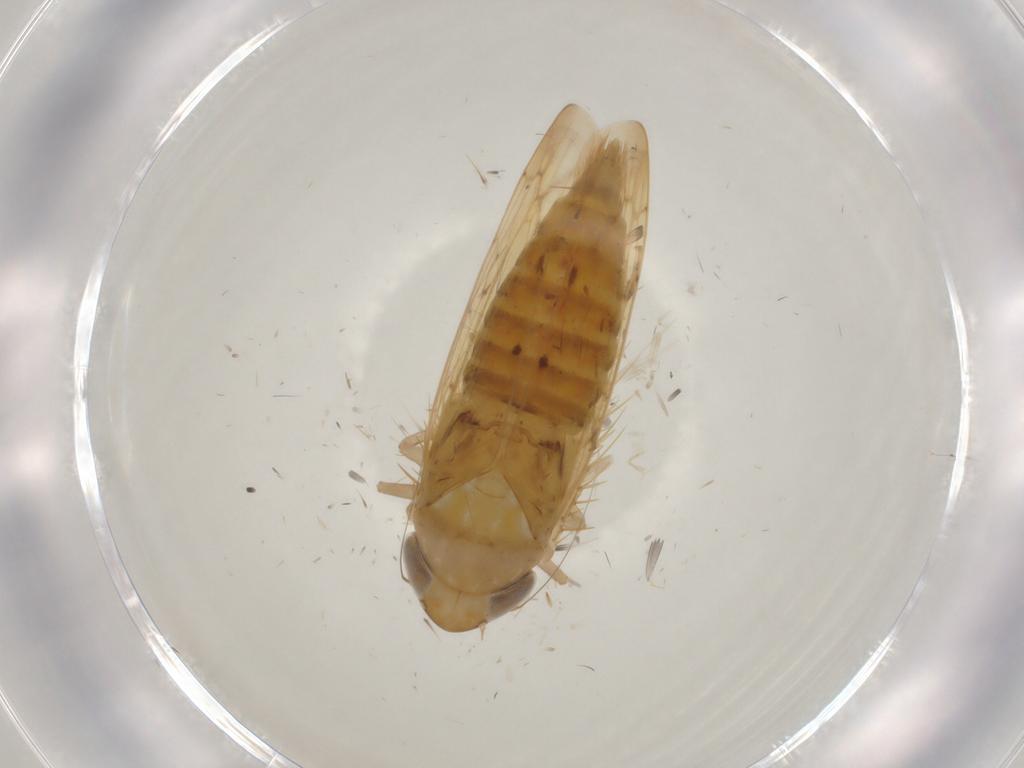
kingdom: Animalia
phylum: Arthropoda
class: Insecta
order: Hemiptera
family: Cicadellidae
